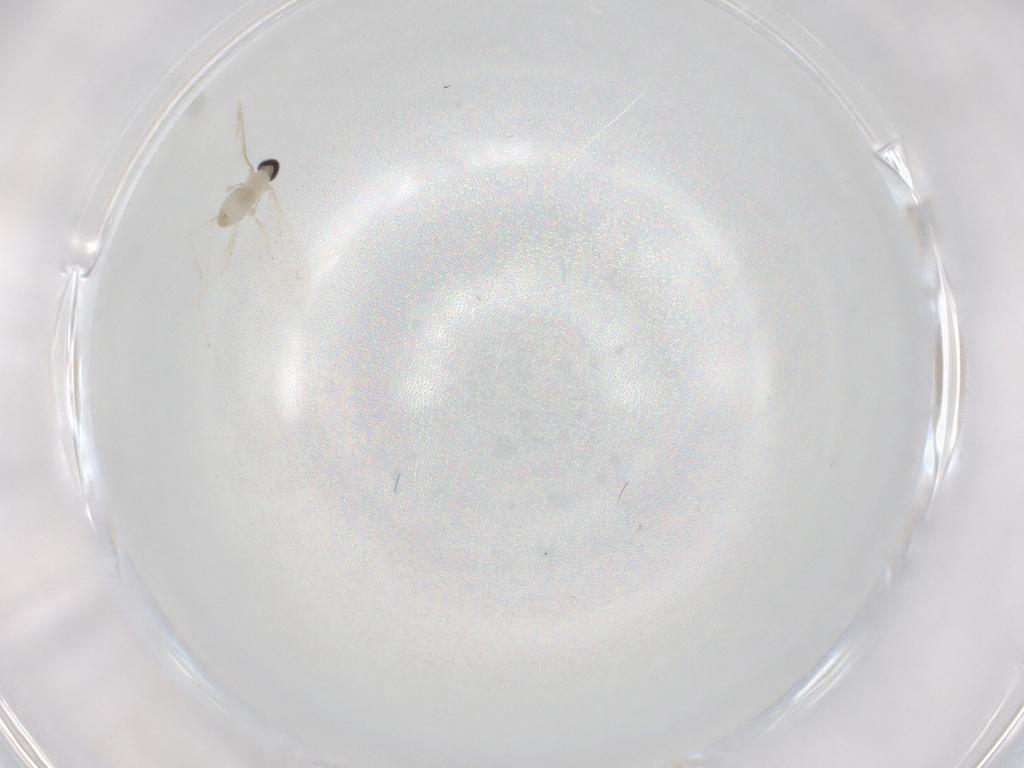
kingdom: Animalia
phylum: Arthropoda
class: Insecta
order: Diptera
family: Cecidomyiidae
